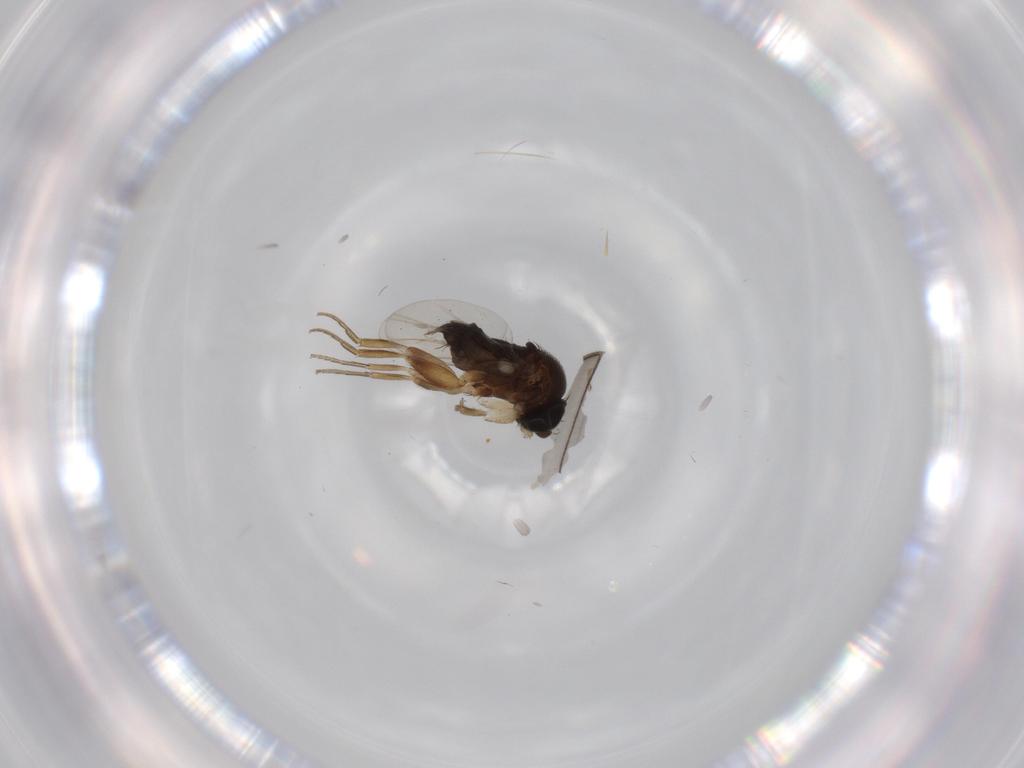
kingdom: Animalia
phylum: Arthropoda
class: Insecta
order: Diptera
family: Limoniidae
